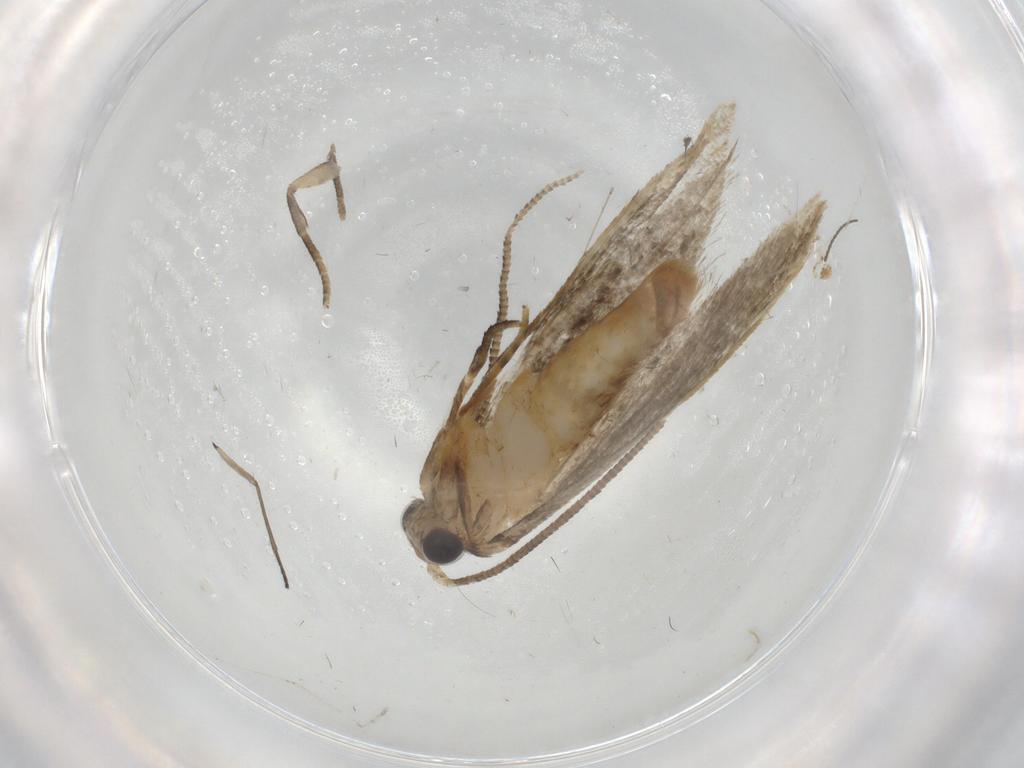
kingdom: Animalia
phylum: Arthropoda
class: Insecta
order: Lepidoptera
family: Tineidae
